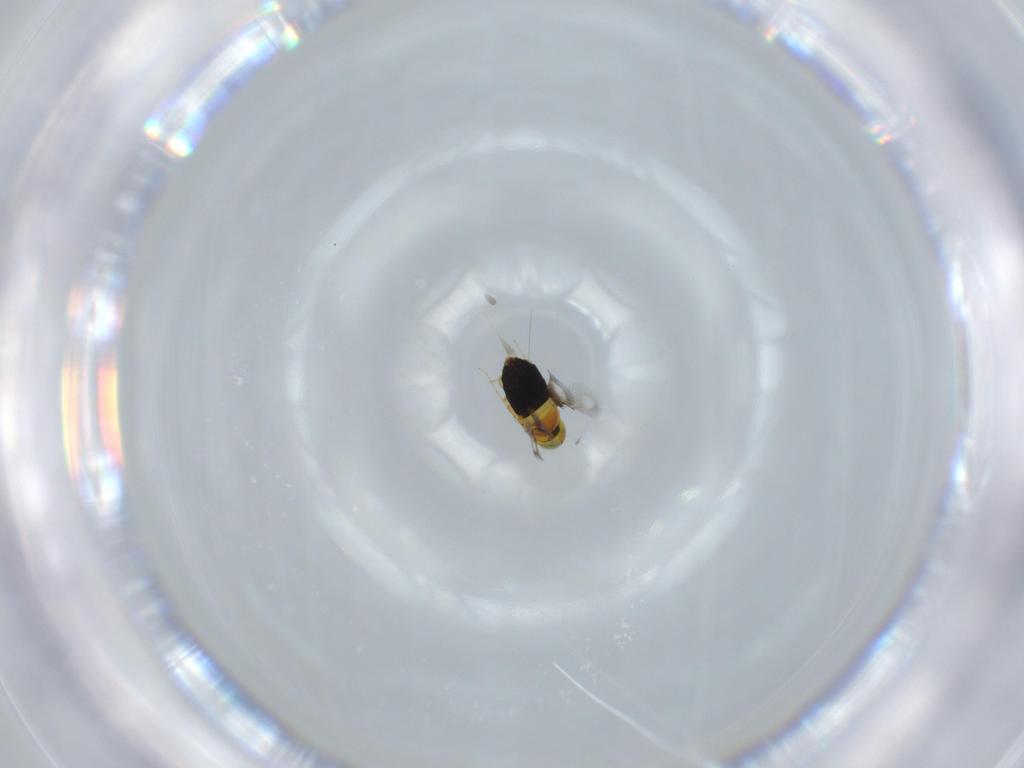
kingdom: Animalia
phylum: Arthropoda
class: Insecta
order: Hymenoptera
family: Signiphoridae
